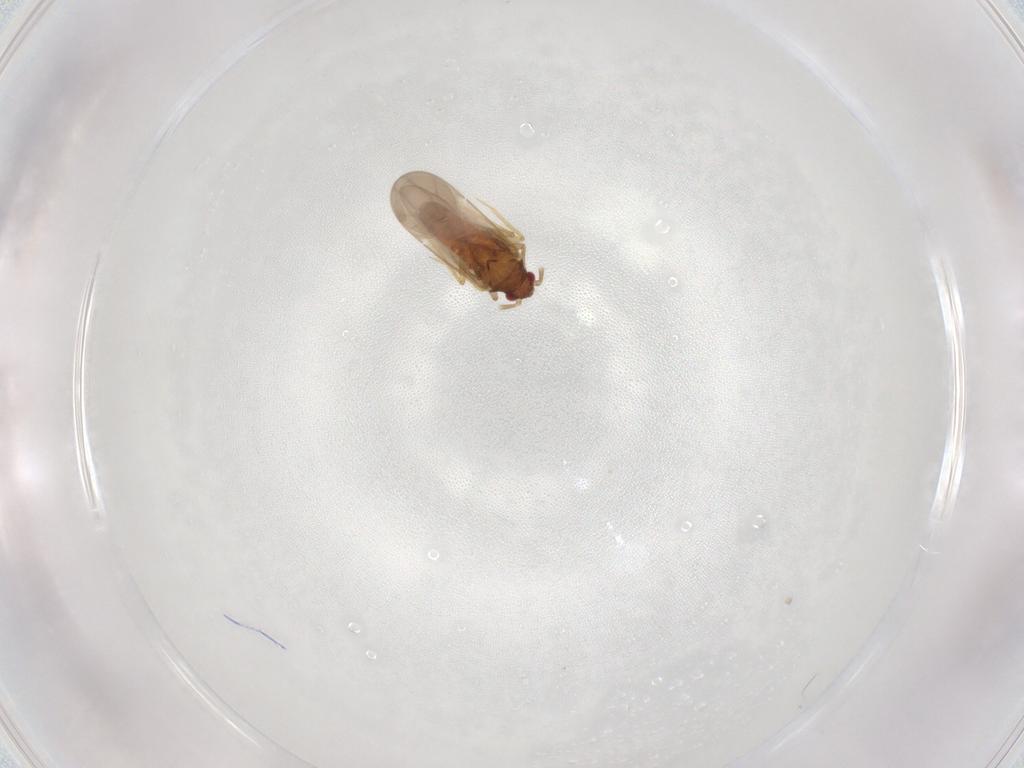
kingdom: Animalia
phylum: Arthropoda
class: Insecta
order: Hemiptera
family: Ceratocombidae
